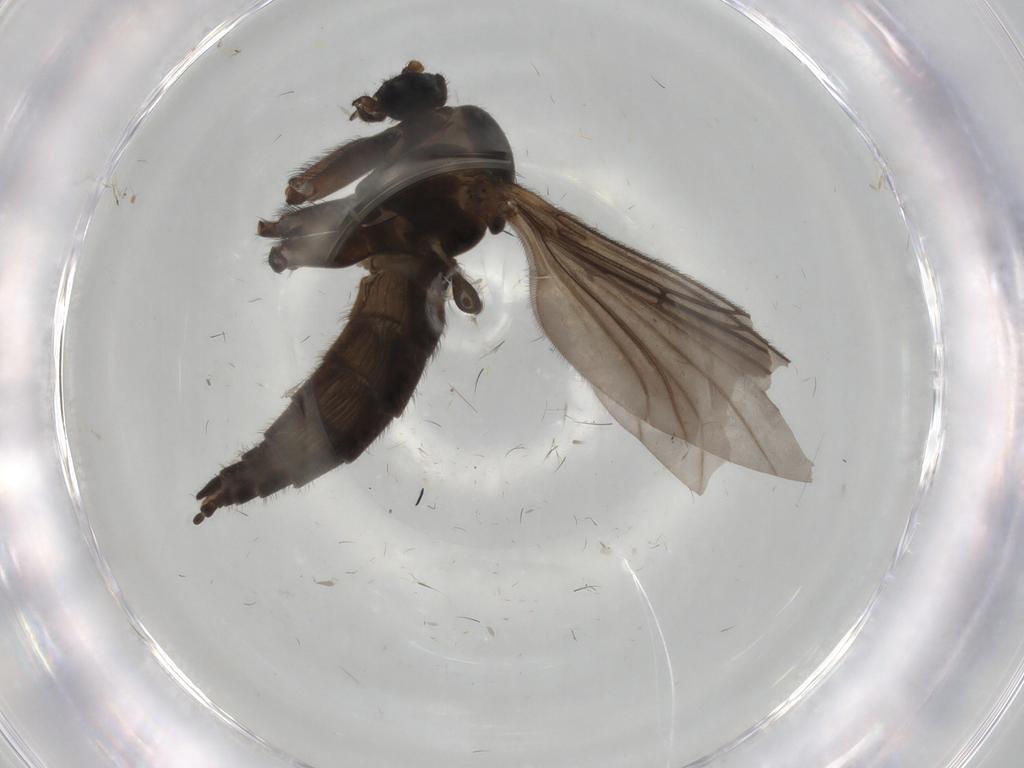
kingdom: Animalia
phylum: Arthropoda
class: Insecta
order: Diptera
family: Sciaridae
